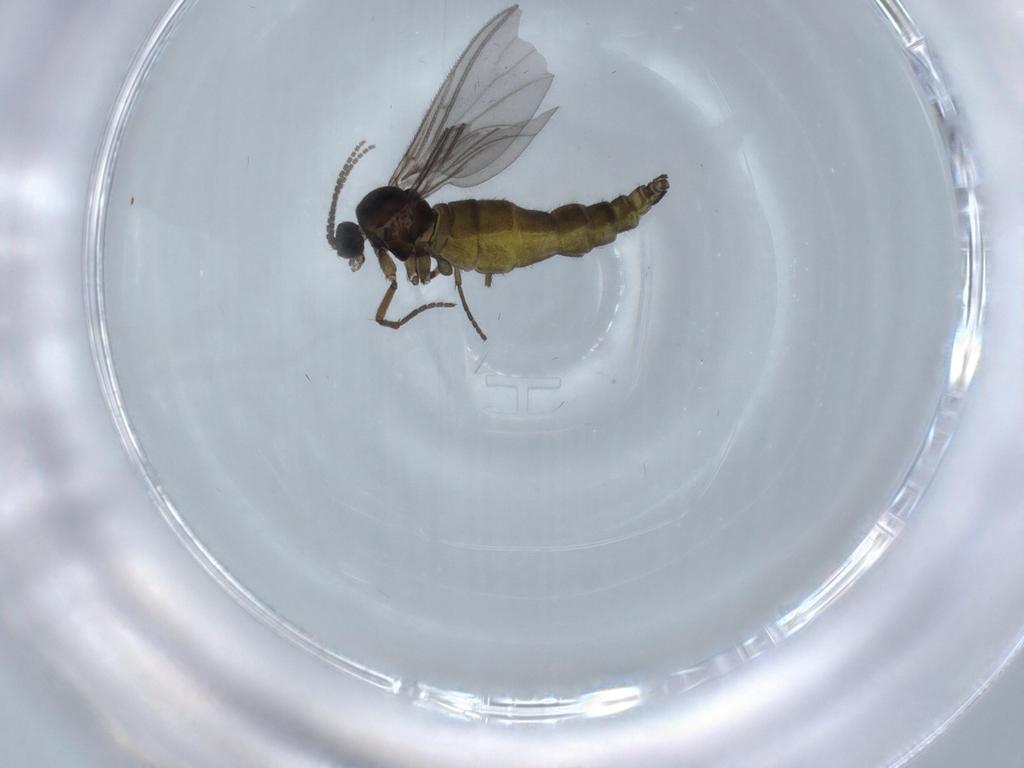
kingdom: Animalia
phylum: Arthropoda
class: Insecta
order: Diptera
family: Sciaridae
